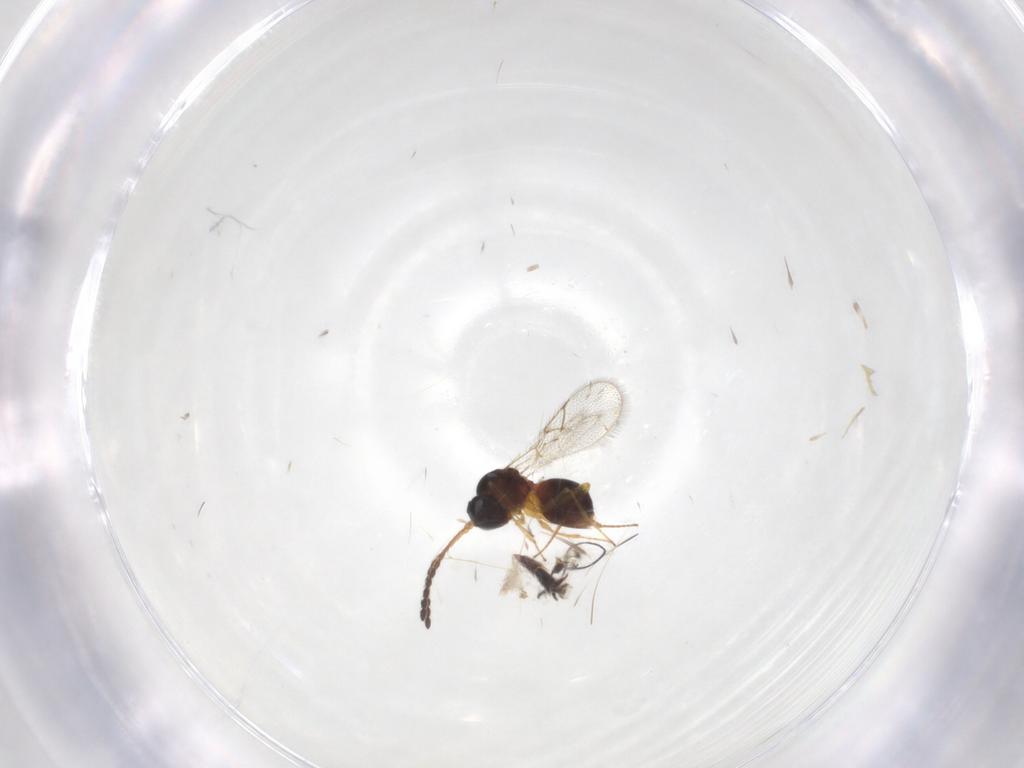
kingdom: Animalia
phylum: Arthropoda
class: Insecta
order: Hymenoptera
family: Figitidae
